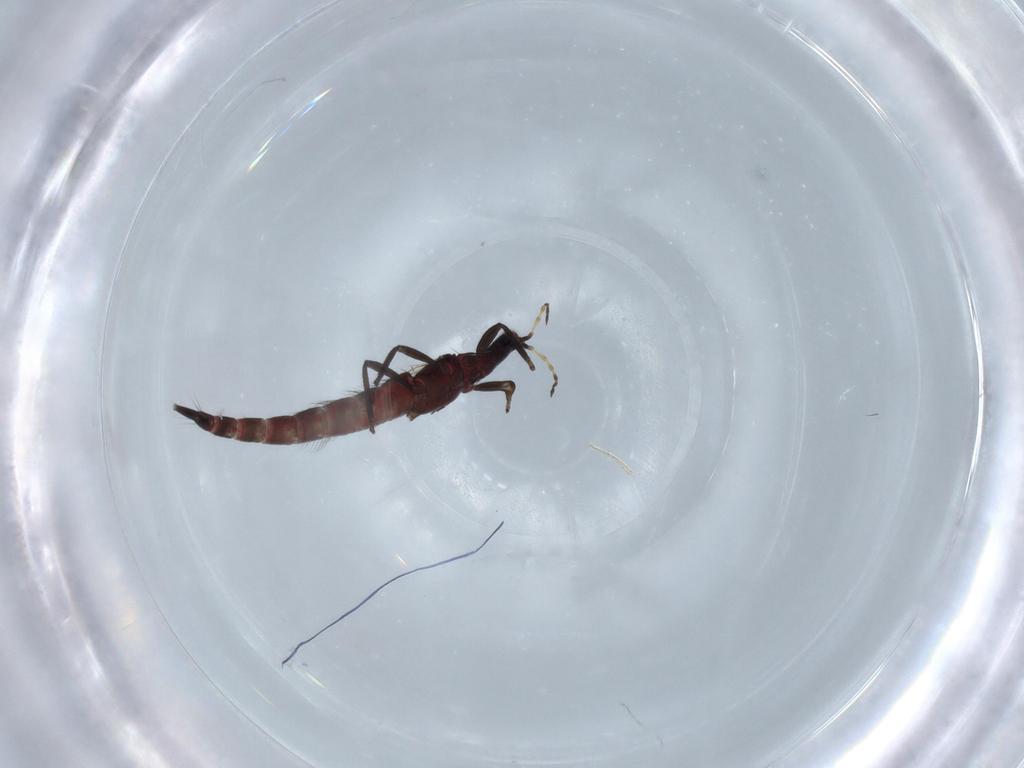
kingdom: Animalia
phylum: Arthropoda
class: Insecta
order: Thysanoptera
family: Phlaeothripidae
